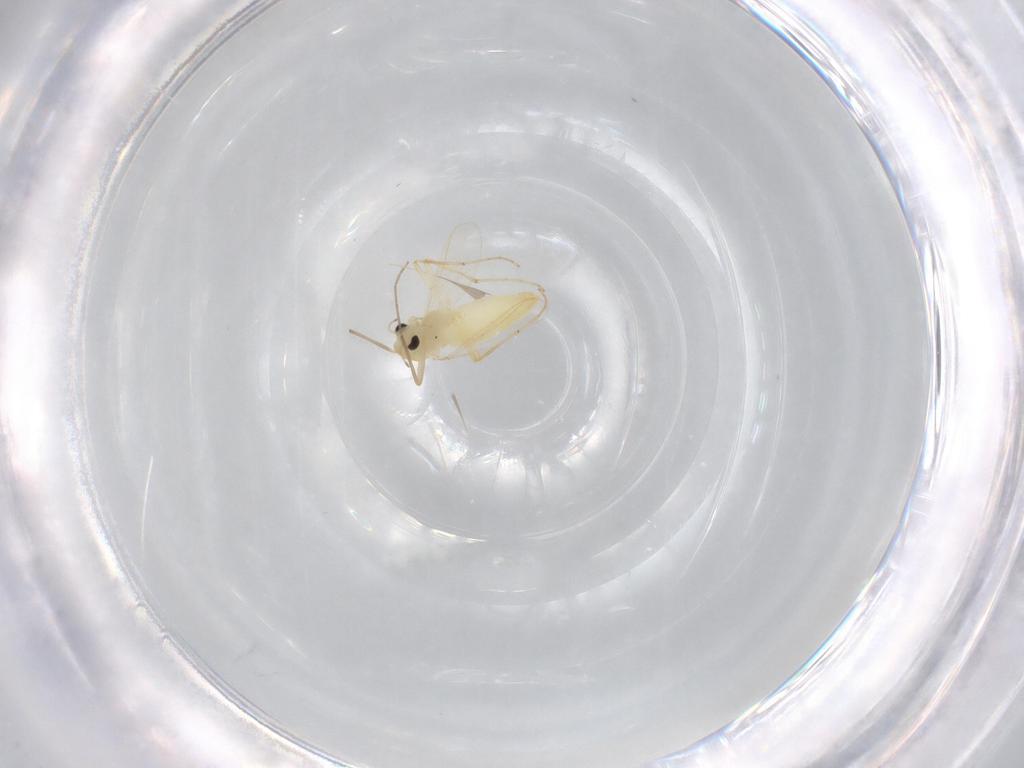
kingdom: Animalia
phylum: Arthropoda
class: Insecta
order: Diptera
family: Chironomidae
